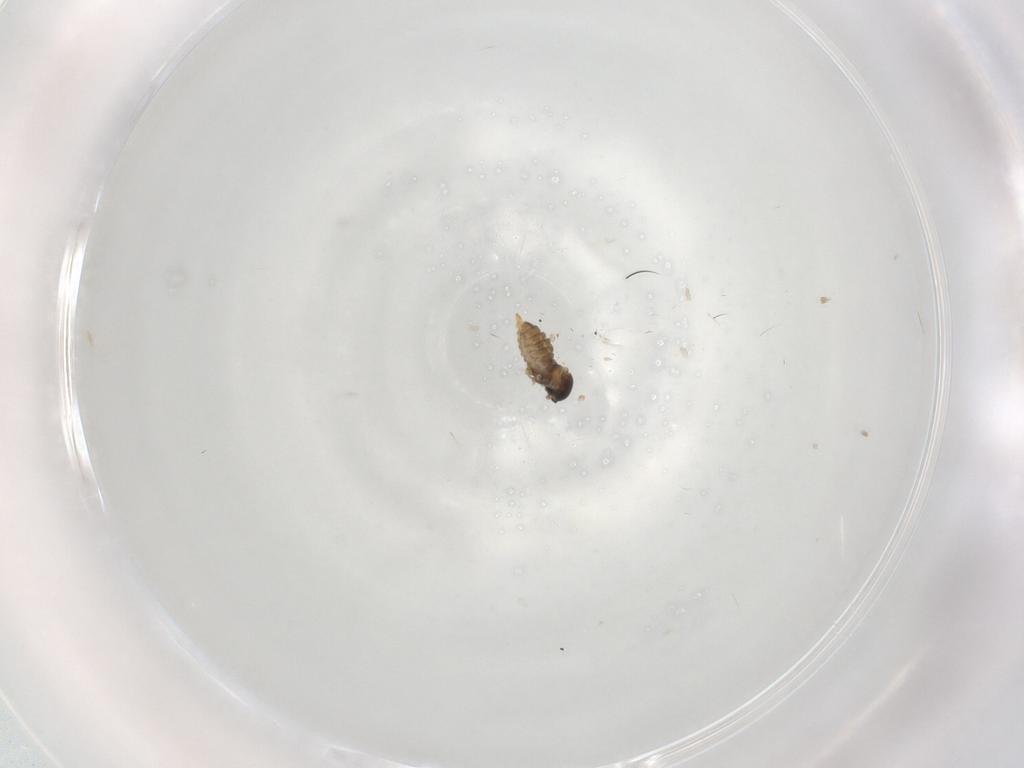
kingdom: Animalia
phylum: Arthropoda
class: Insecta
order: Diptera
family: Cecidomyiidae
